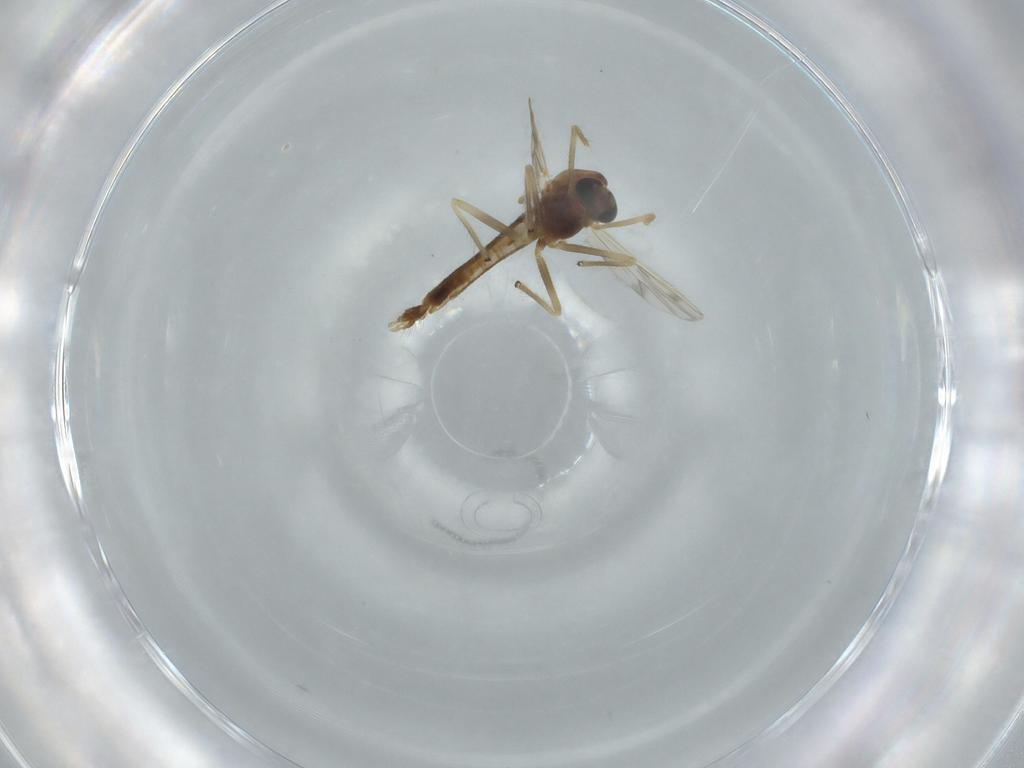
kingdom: Animalia
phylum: Arthropoda
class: Insecta
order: Diptera
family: Chironomidae
